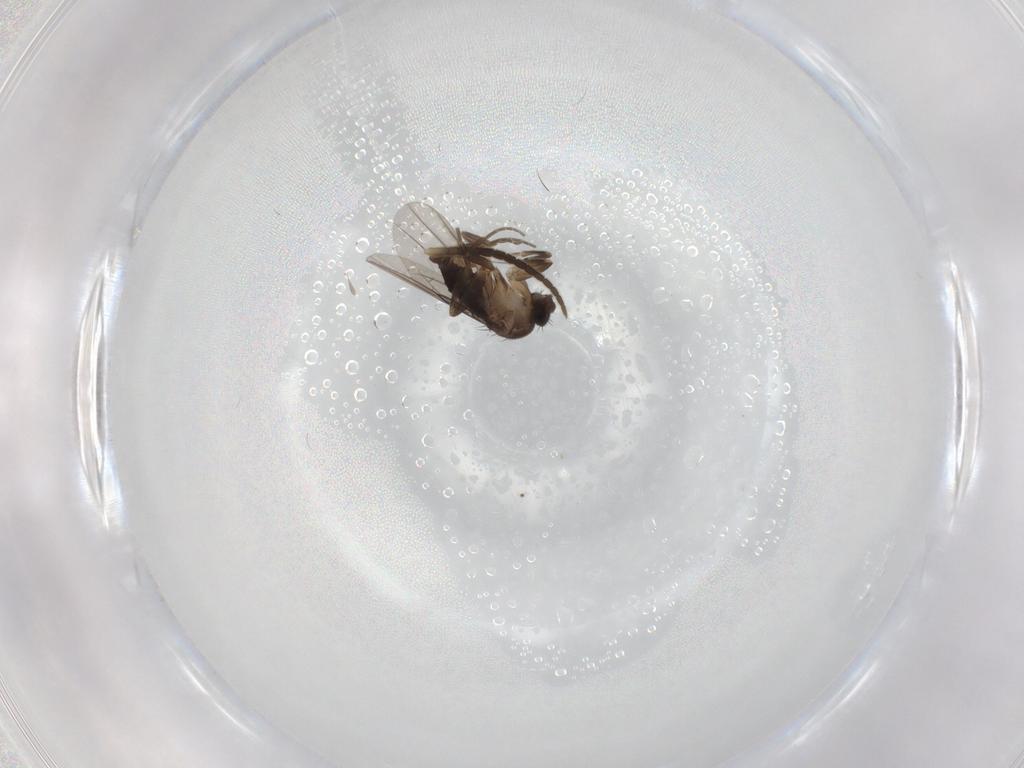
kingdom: Animalia
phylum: Arthropoda
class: Insecta
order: Diptera
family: Diadocidiidae
